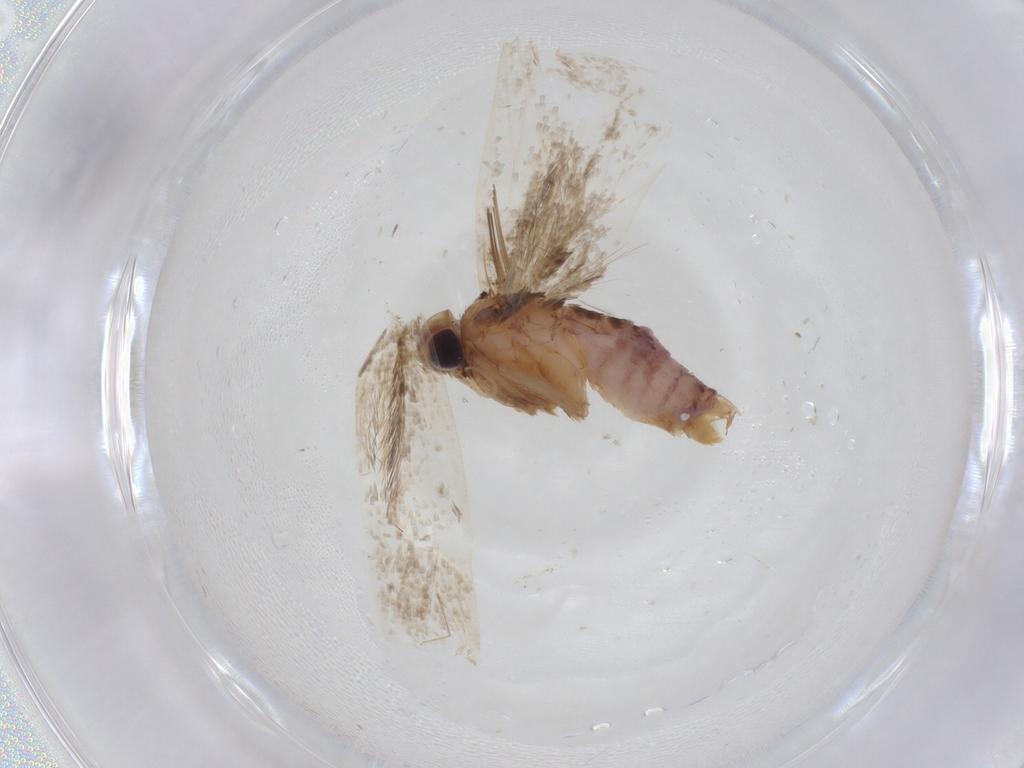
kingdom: Animalia
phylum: Arthropoda
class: Insecta
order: Lepidoptera
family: Gelechiidae
